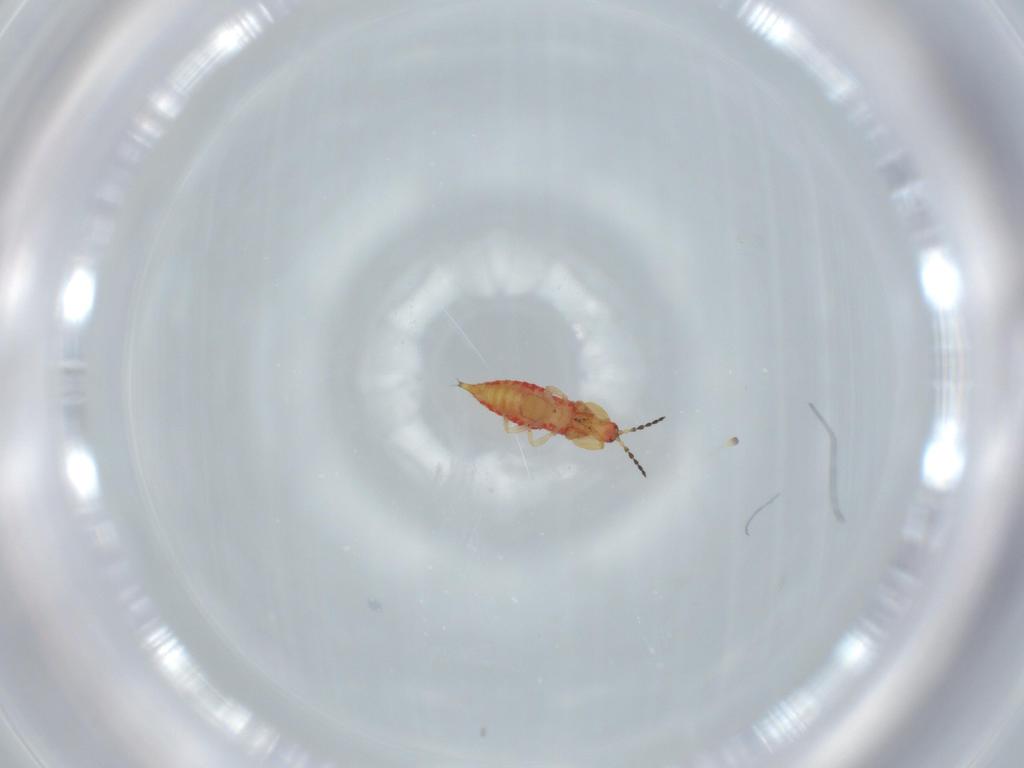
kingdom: Animalia
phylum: Arthropoda
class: Insecta
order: Thysanoptera
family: Phlaeothripidae
